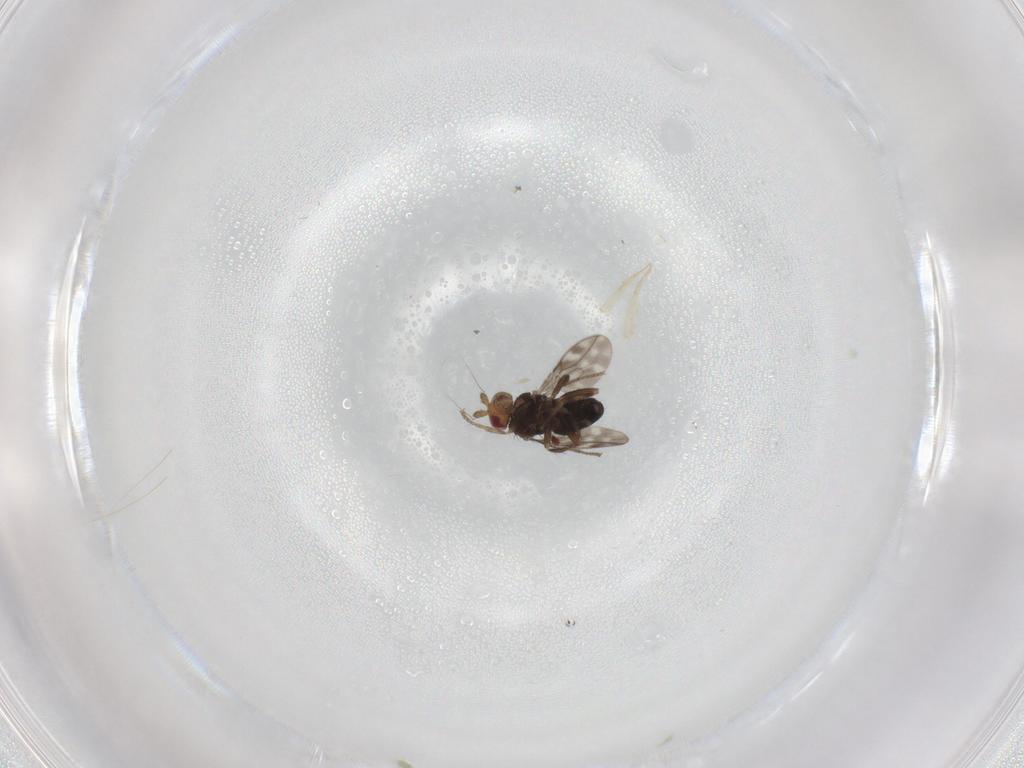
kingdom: Animalia
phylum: Arthropoda
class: Insecta
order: Diptera
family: Sphaeroceridae
